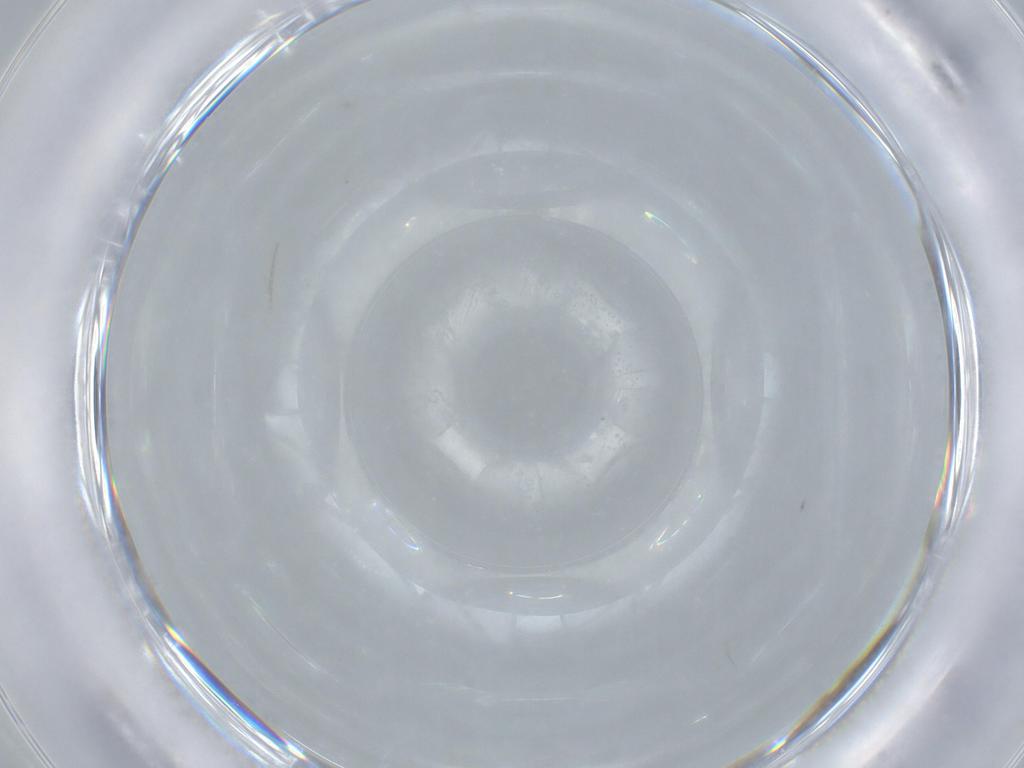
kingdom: Animalia
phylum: Arthropoda
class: Insecta
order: Hymenoptera
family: Trichogrammatidae
